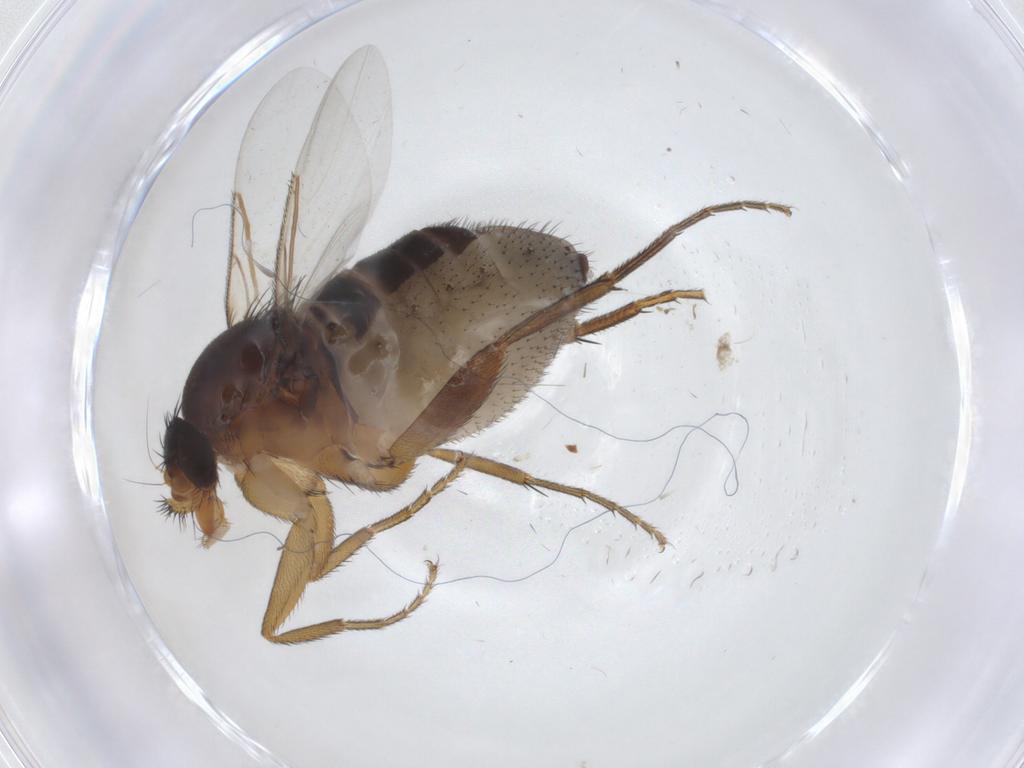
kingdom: Animalia
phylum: Arthropoda
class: Insecta
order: Diptera
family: Phoridae
